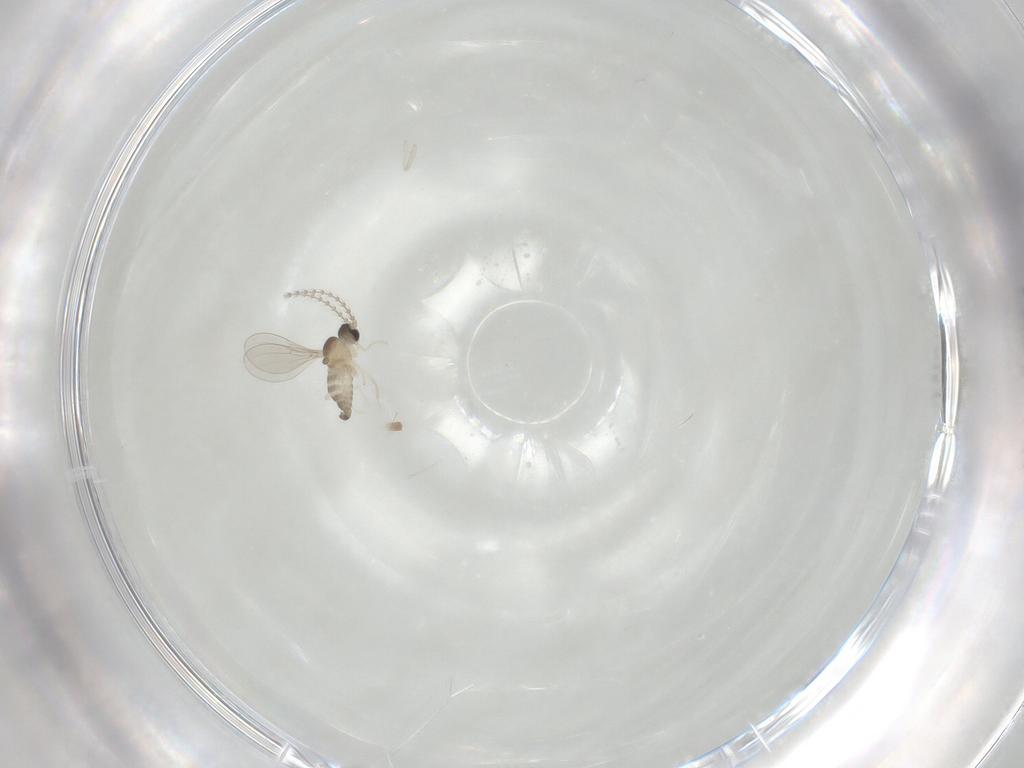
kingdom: Animalia
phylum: Arthropoda
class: Insecta
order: Diptera
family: Cecidomyiidae
